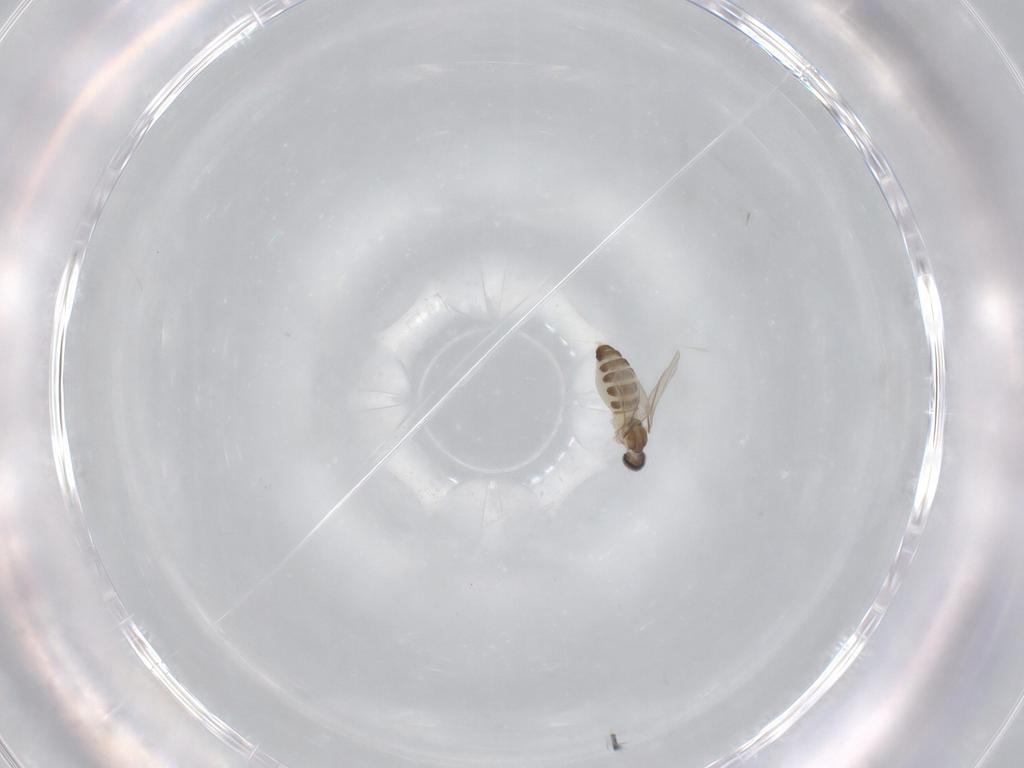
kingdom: Animalia
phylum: Arthropoda
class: Insecta
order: Diptera
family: Cecidomyiidae
